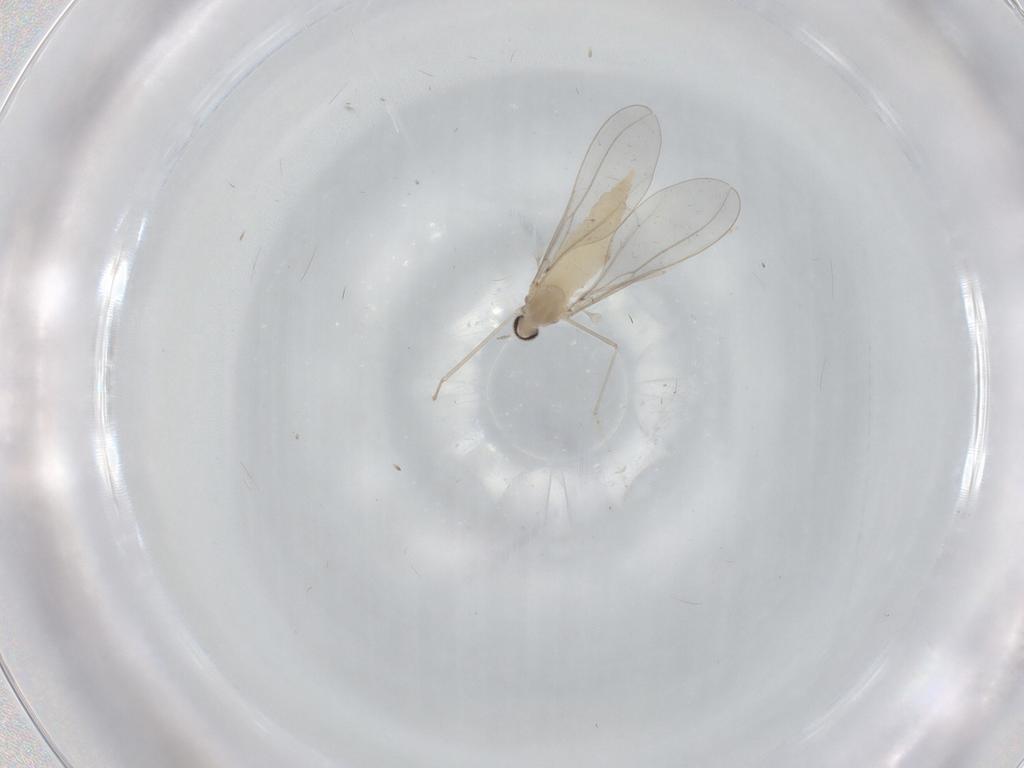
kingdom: Animalia
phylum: Arthropoda
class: Insecta
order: Diptera
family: Cecidomyiidae
